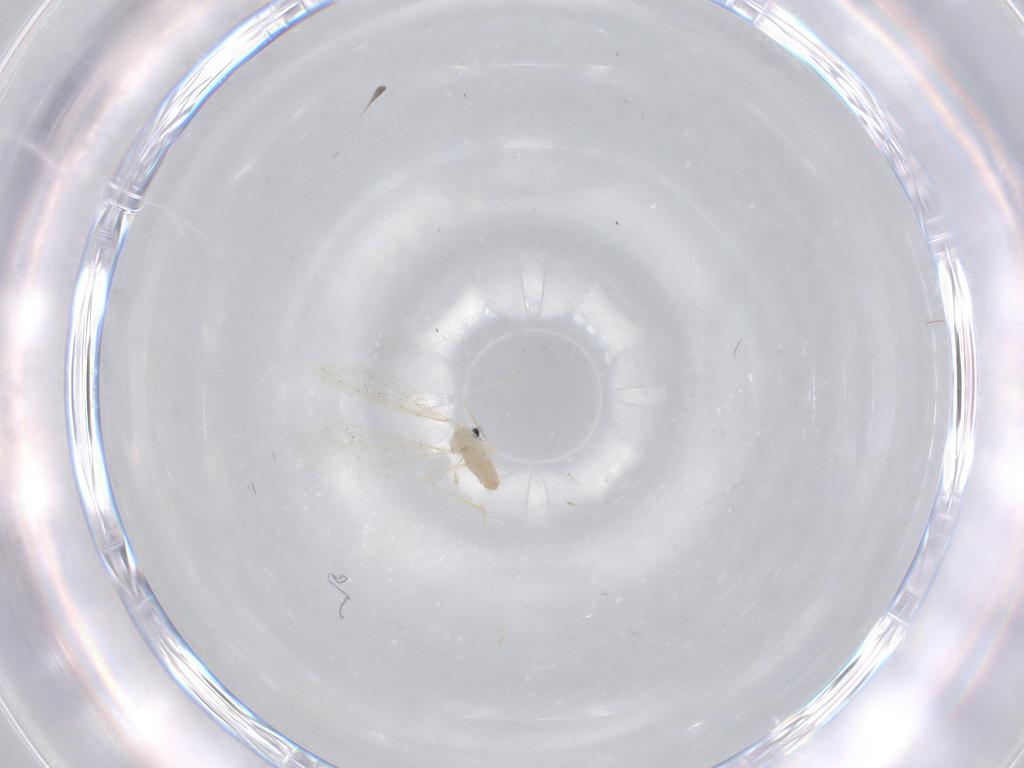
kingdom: Animalia
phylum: Arthropoda
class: Insecta
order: Diptera
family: Cecidomyiidae
